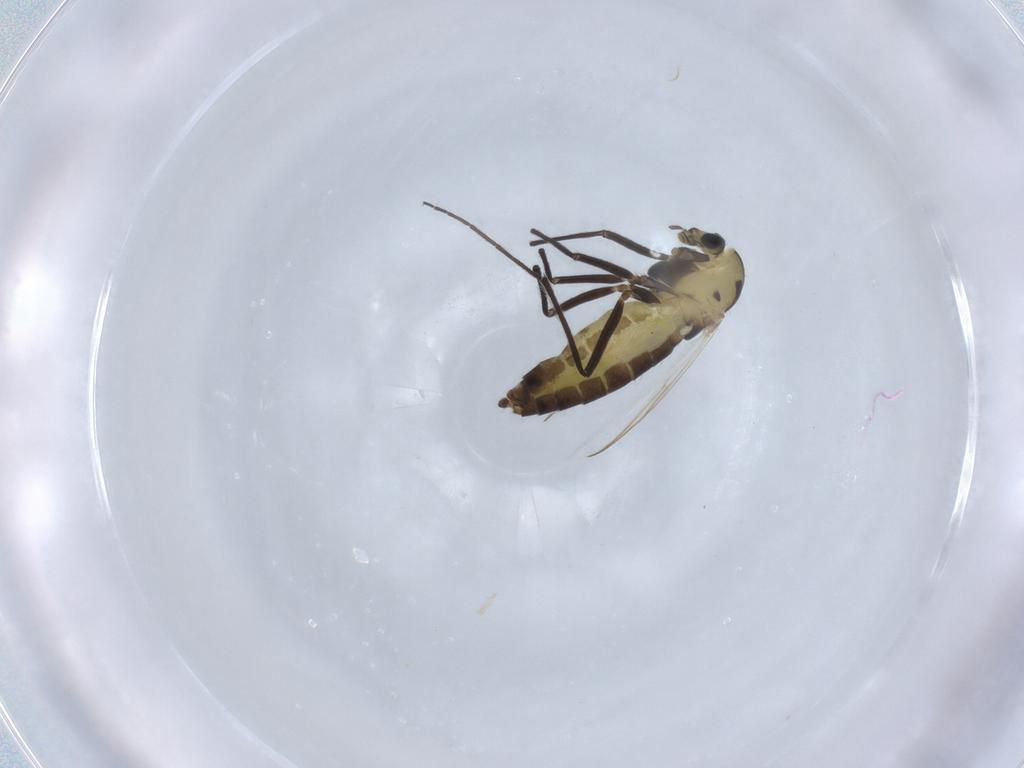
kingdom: Animalia
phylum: Arthropoda
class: Insecta
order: Diptera
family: Chironomidae
